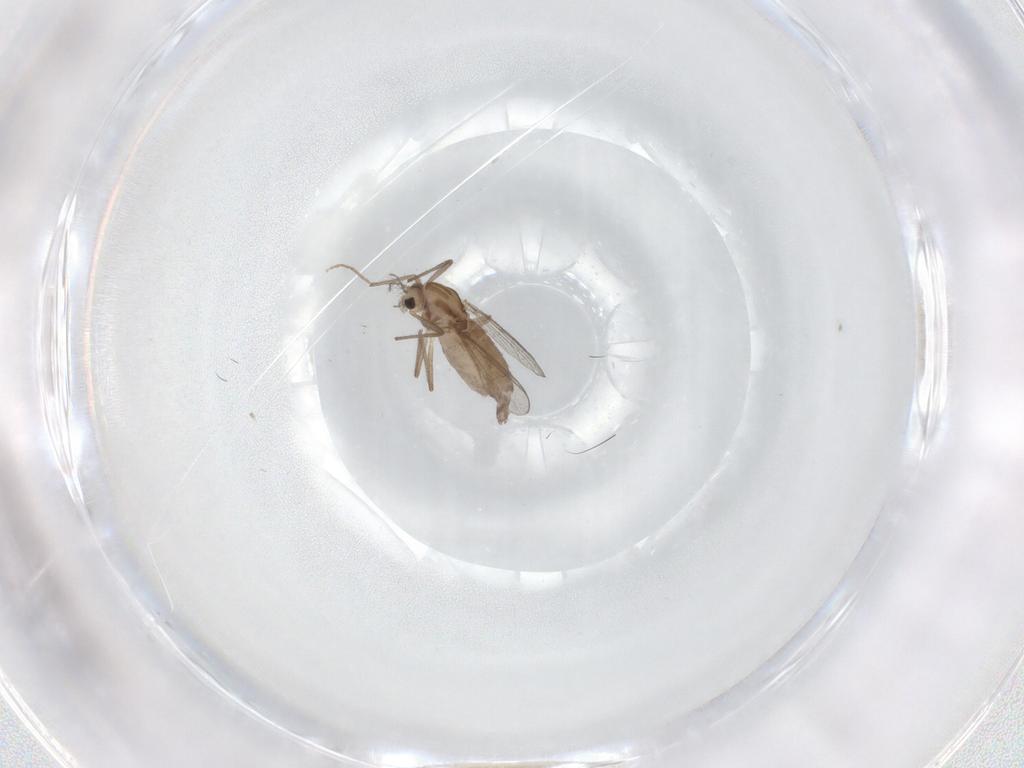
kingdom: Animalia
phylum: Arthropoda
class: Insecta
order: Diptera
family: Chironomidae
